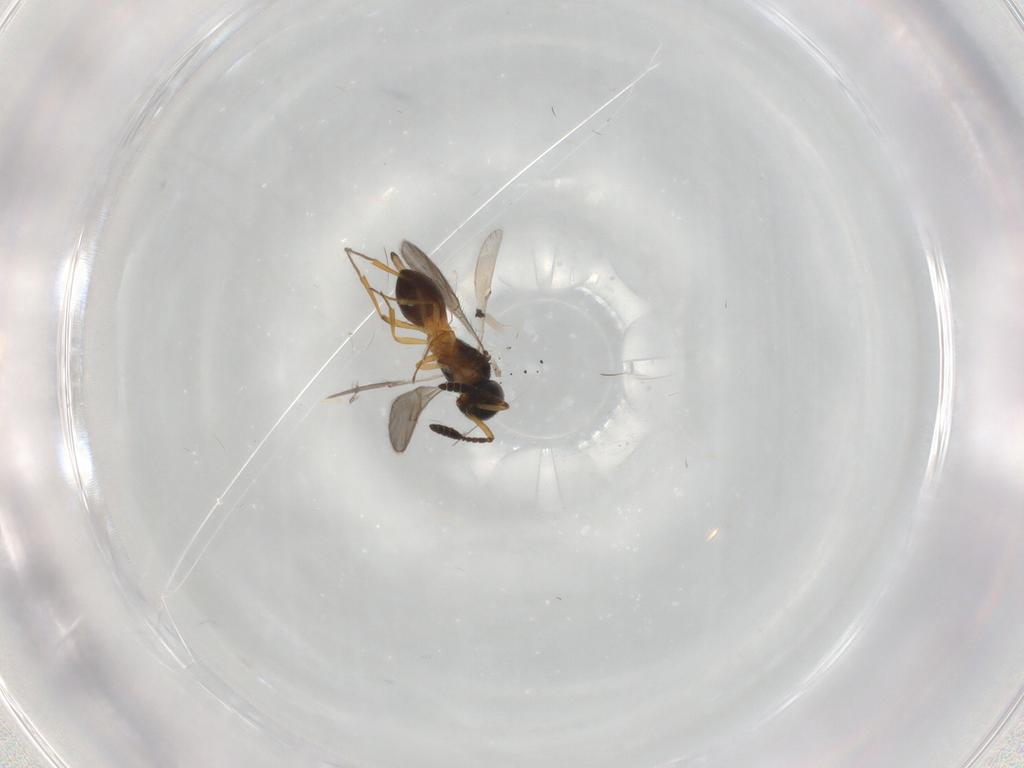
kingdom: Animalia
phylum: Arthropoda
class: Insecta
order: Hymenoptera
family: Scelionidae
